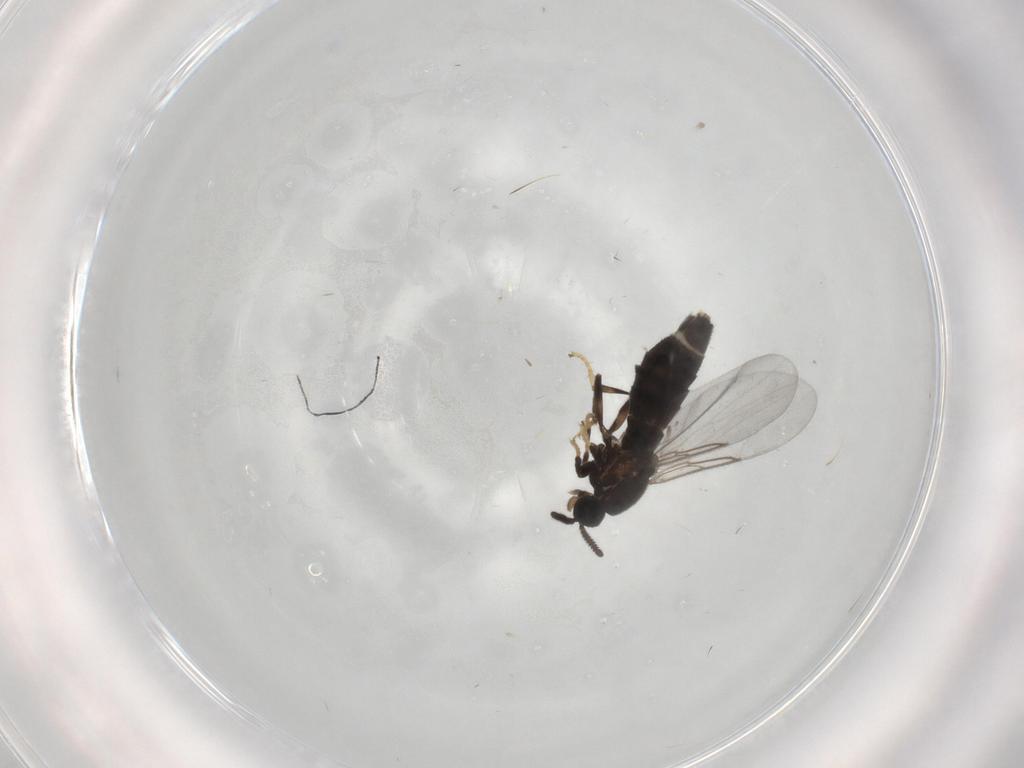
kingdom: Animalia
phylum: Arthropoda
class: Insecta
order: Diptera
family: Scatopsidae
